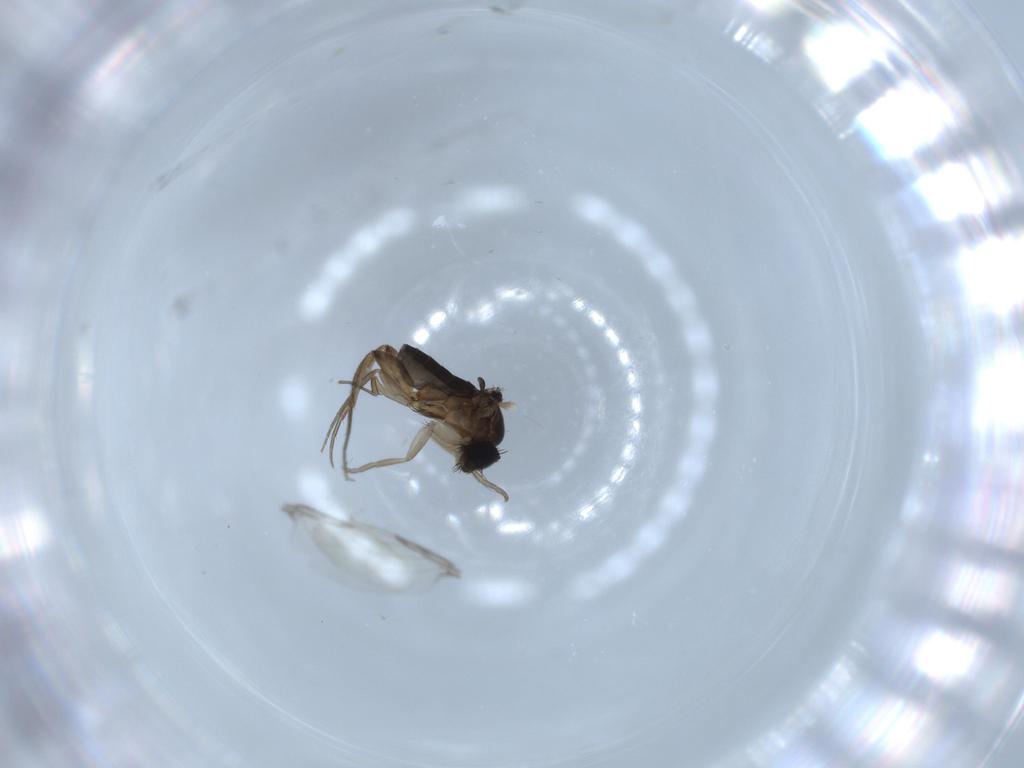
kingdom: Animalia
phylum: Arthropoda
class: Insecta
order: Diptera
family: Phoridae
